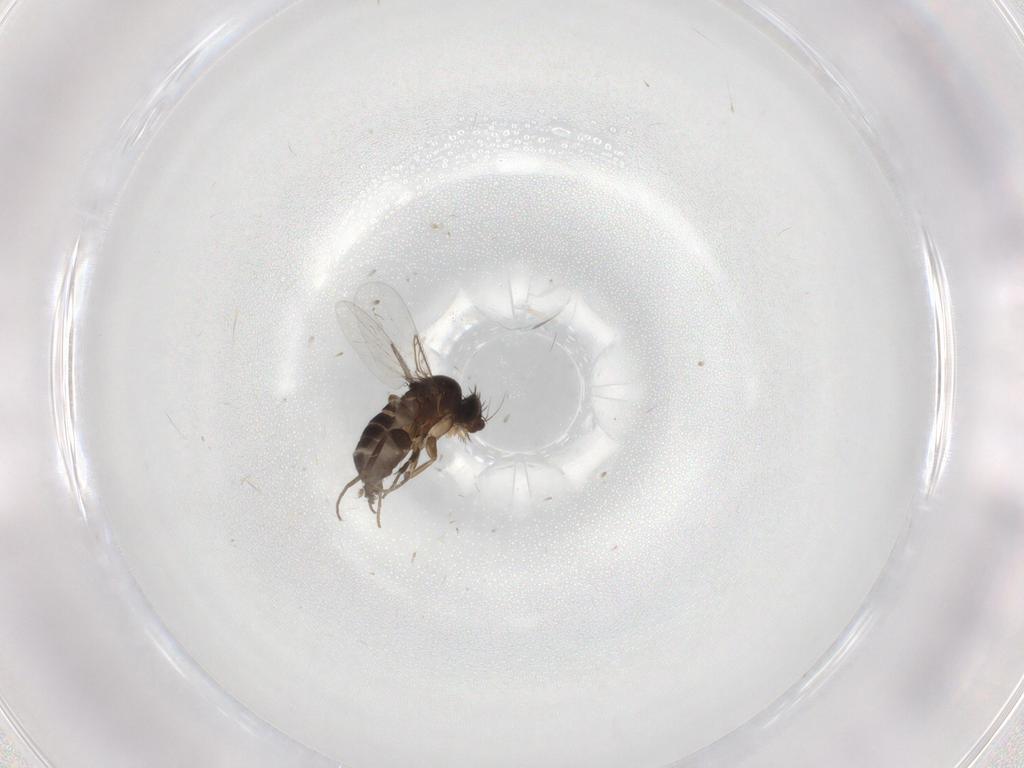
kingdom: Animalia
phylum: Arthropoda
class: Insecta
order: Diptera
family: Phoridae
